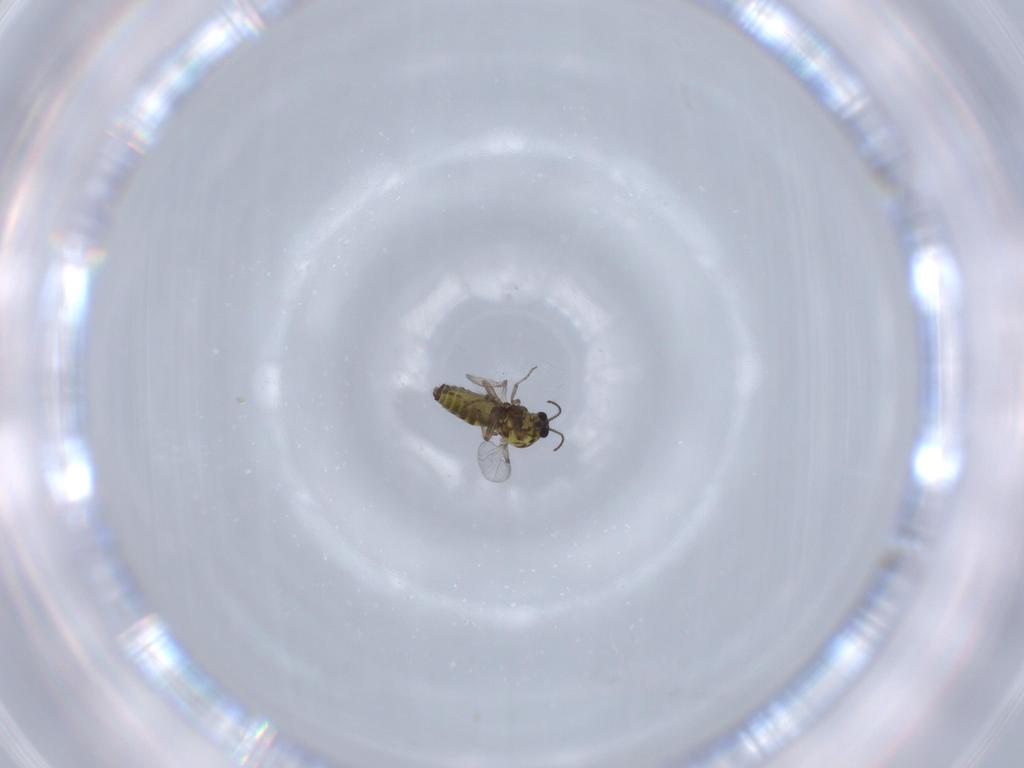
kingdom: Animalia
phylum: Arthropoda
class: Insecta
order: Diptera
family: Ceratopogonidae
